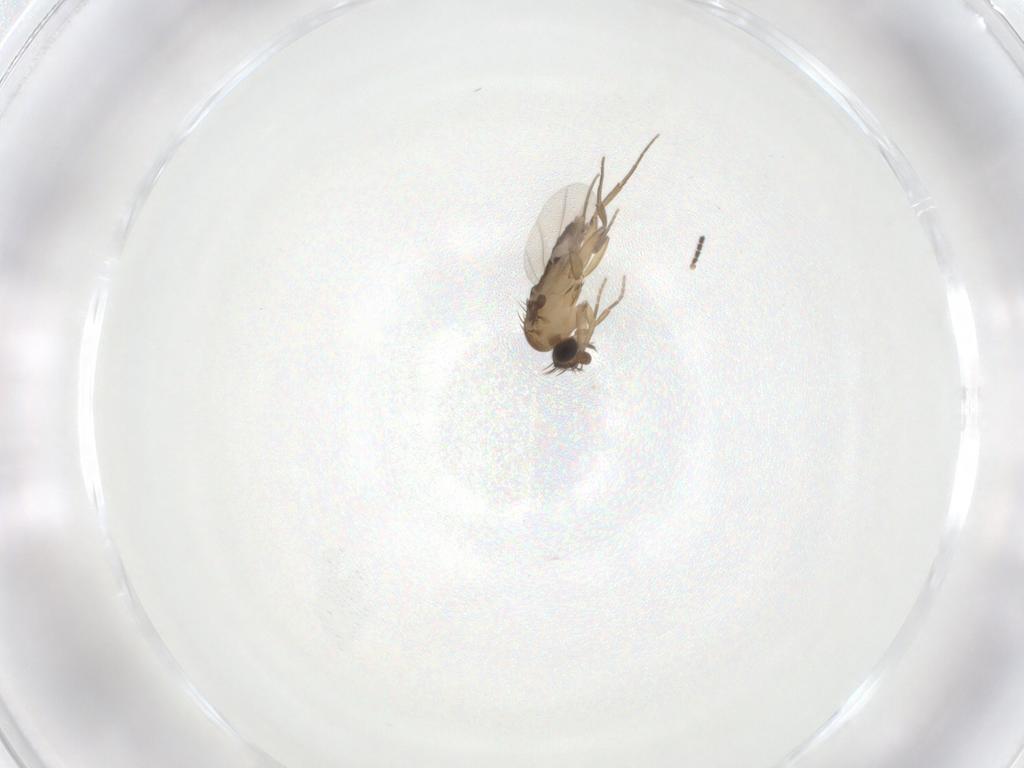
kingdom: Animalia
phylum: Arthropoda
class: Insecta
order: Diptera
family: Phoridae
